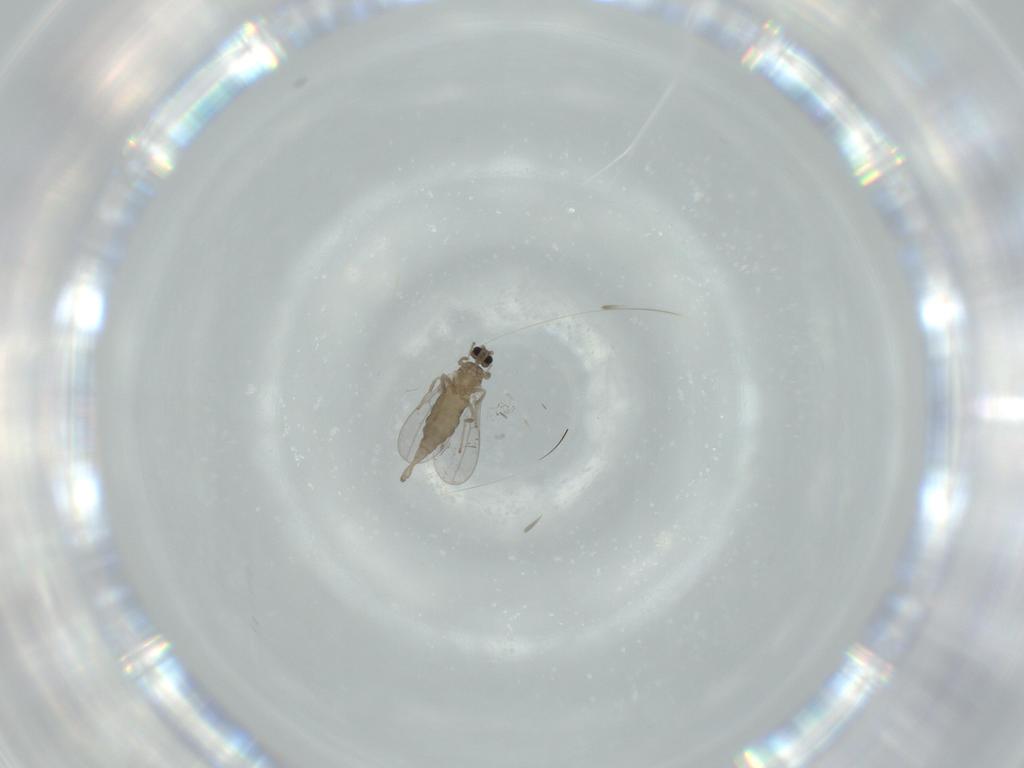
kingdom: Animalia
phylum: Arthropoda
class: Insecta
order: Diptera
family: Cecidomyiidae
